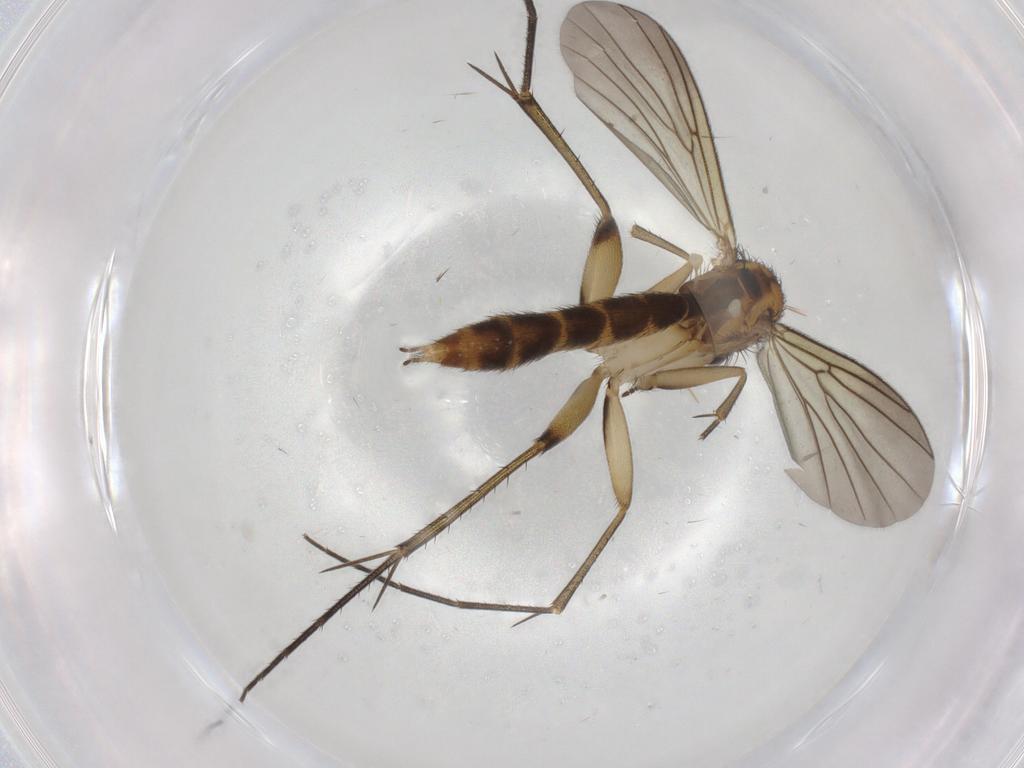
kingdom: Animalia
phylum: Arthropoda
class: Insecta
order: Diptera
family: Mycetophilidae
